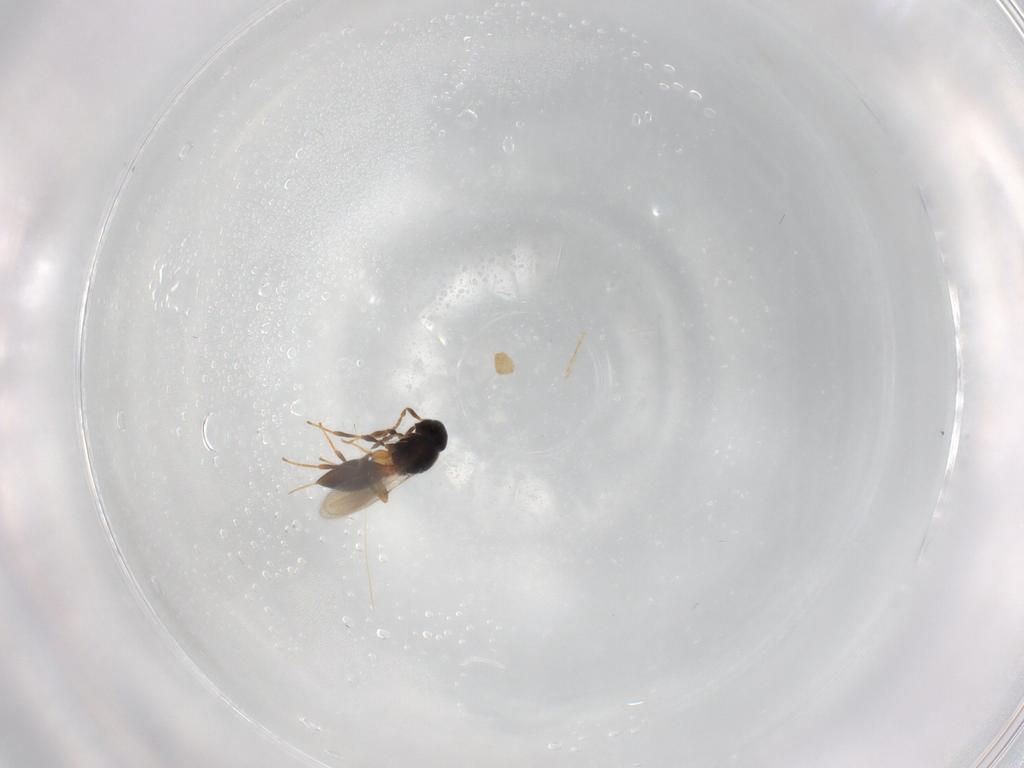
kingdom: Animalia
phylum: Arthropoda
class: Insecta
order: Hymenoptera
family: Platygastridae
